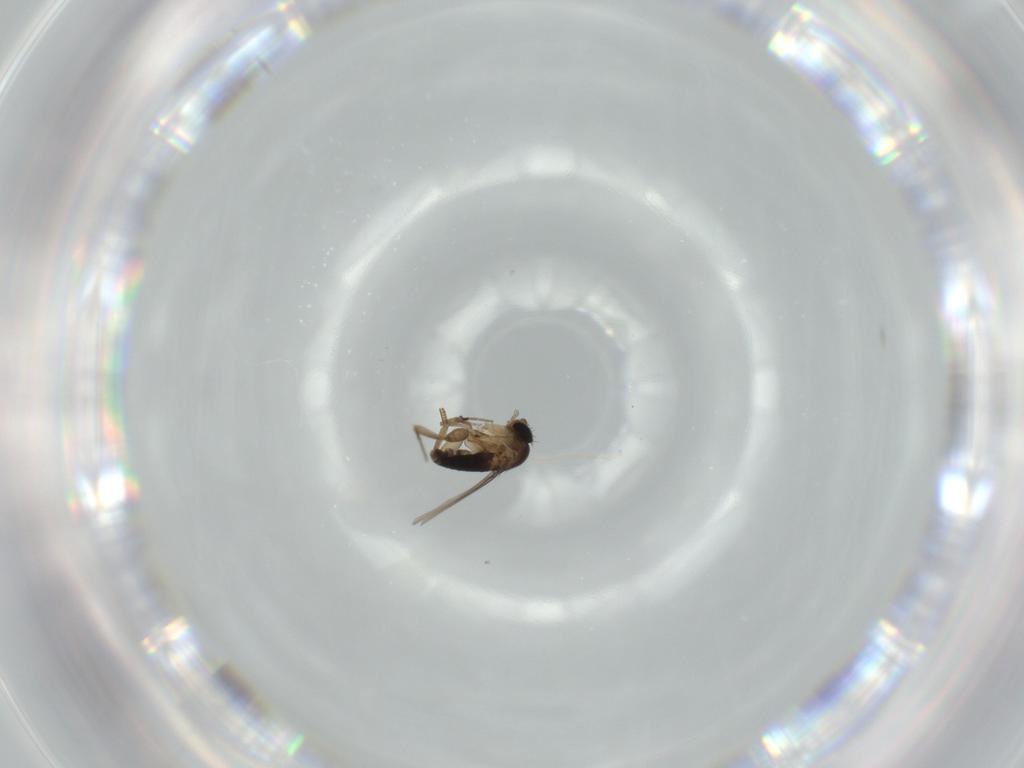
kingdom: Animalia
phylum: Arthropoda
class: Insecta
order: Diptera
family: Phoridae
